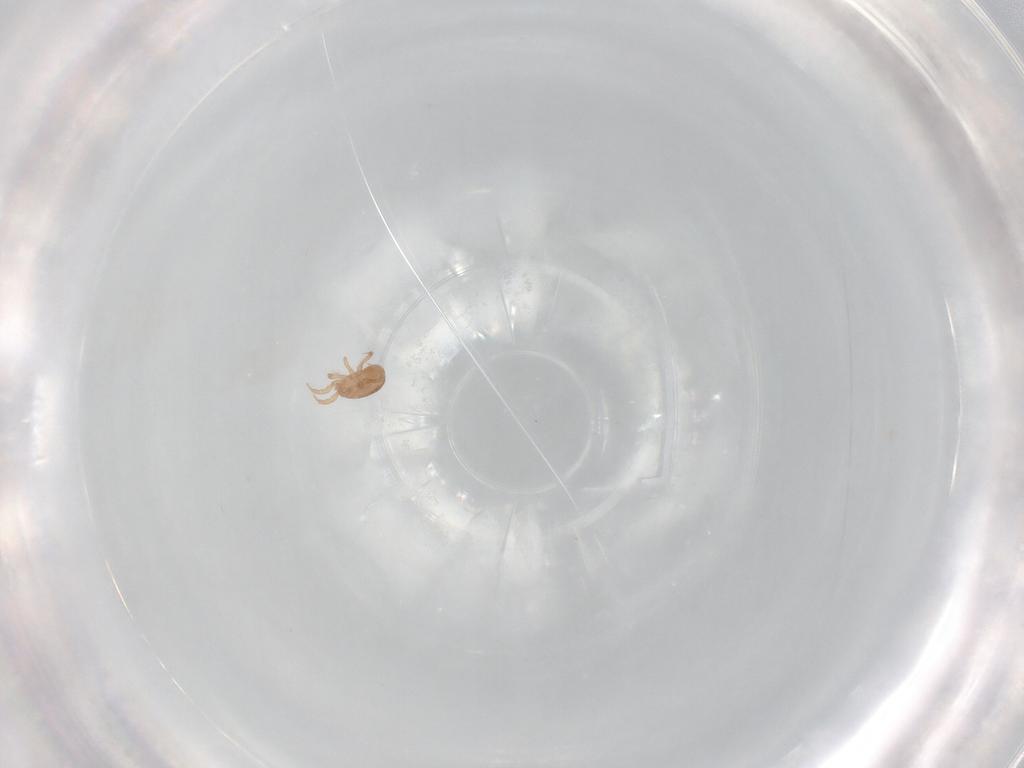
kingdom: Animalia
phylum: Arthropoda
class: Arachnida
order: Mesostigmata
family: Blattisociidae
